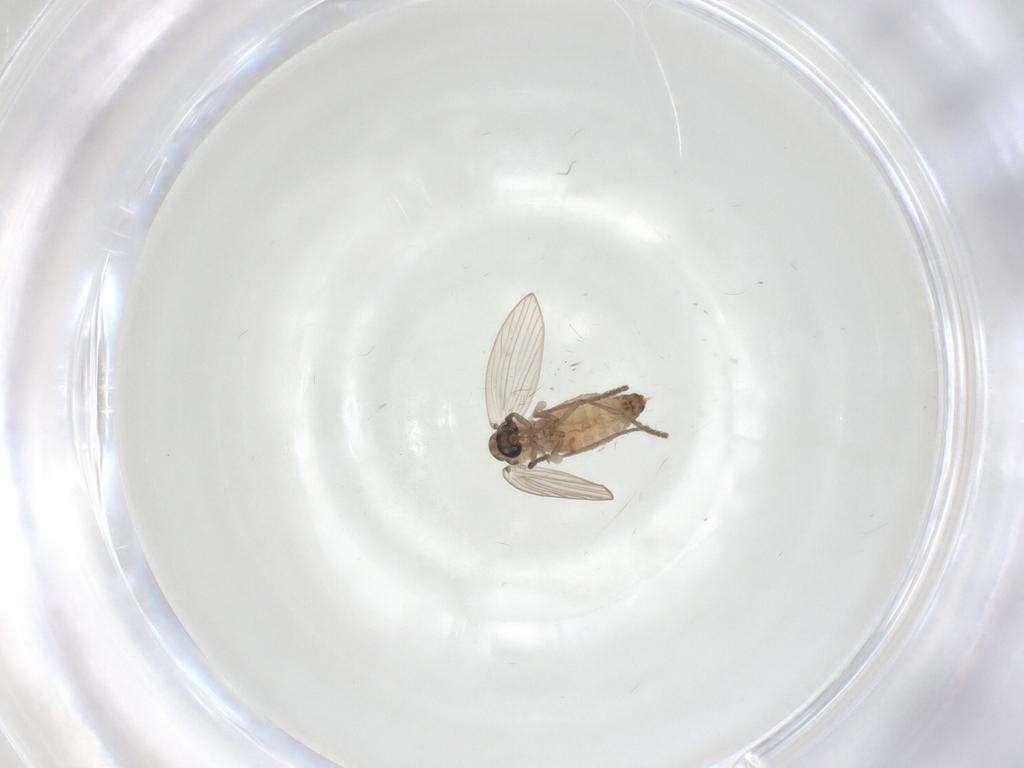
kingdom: Animalia
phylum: Arthropoda
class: Insecta
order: Diptera
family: Psychodidae
